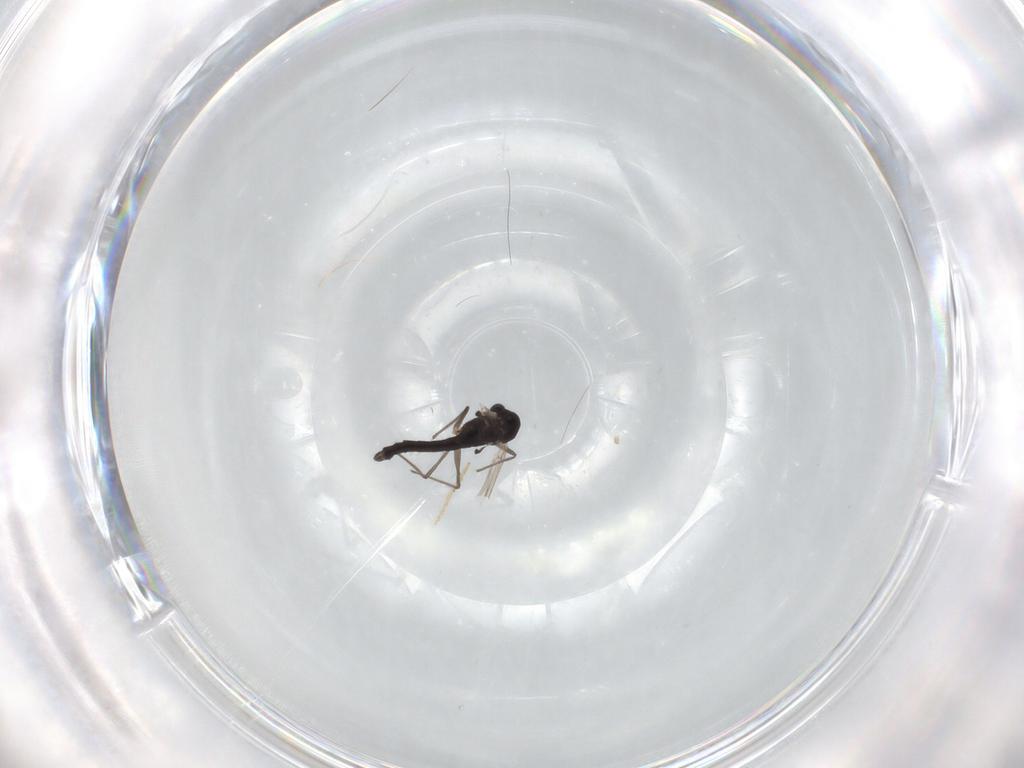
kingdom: Animalia
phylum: Arthropoda
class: Insecta
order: Diptera
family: Chironomidae
